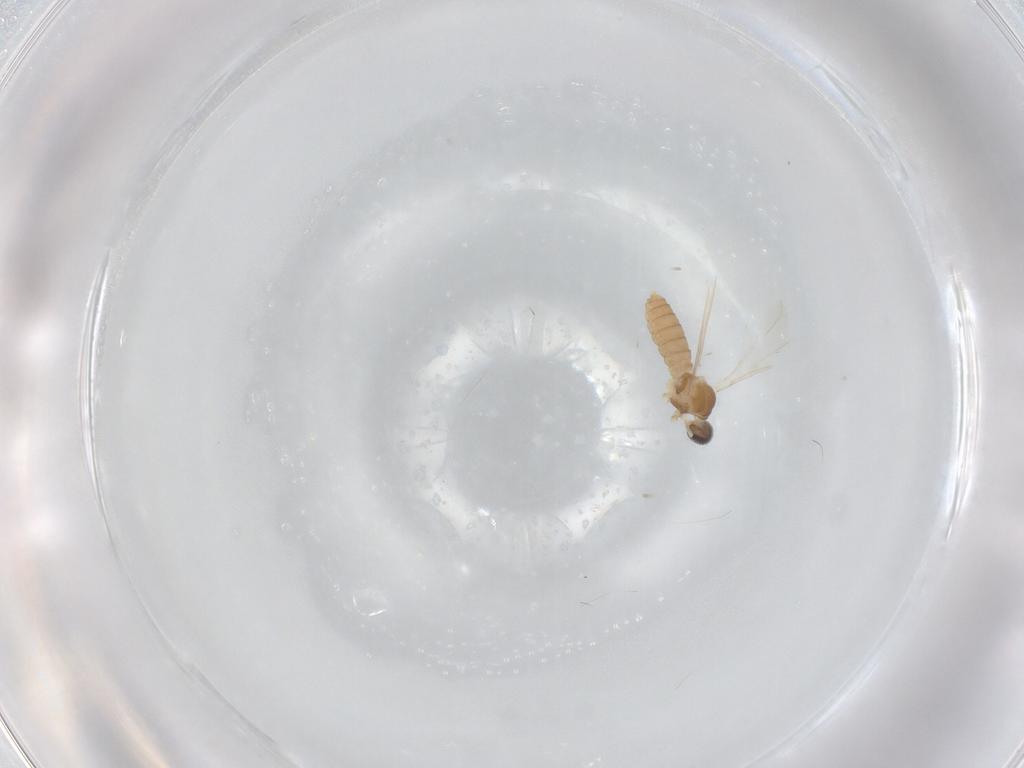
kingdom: Animalia
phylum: Arthropoda
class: Insecta
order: Diptera
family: Cecidomyiidae
